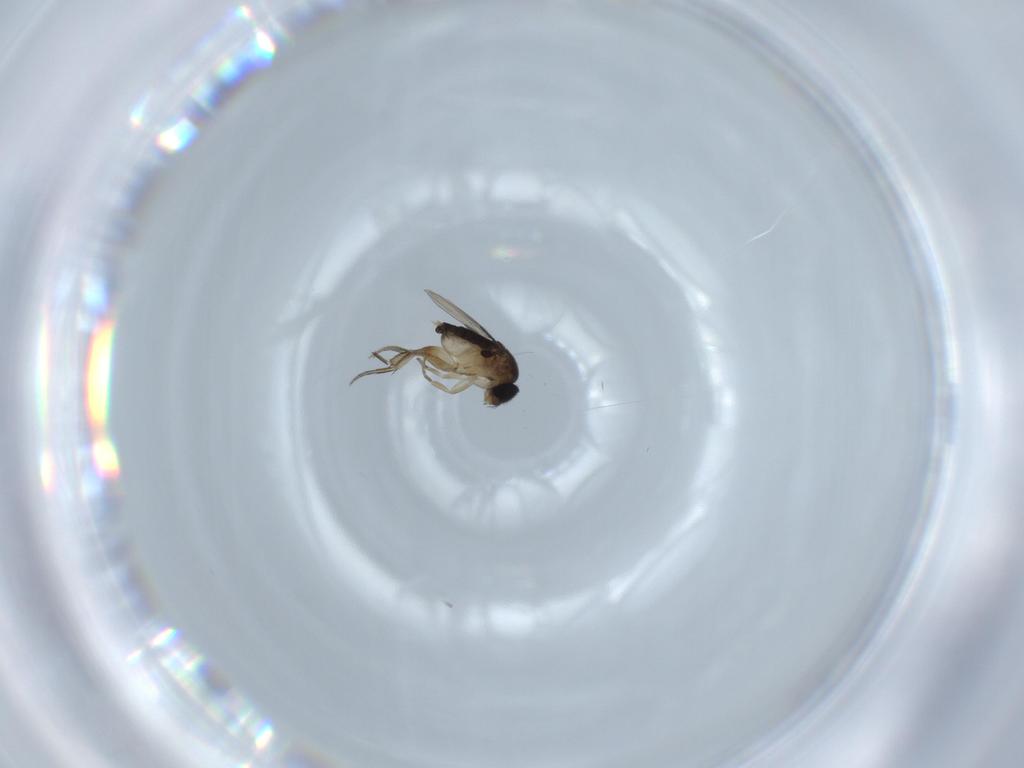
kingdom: Animalia
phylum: Arthropoda
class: Insecta
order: Diptera
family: Phoridae
